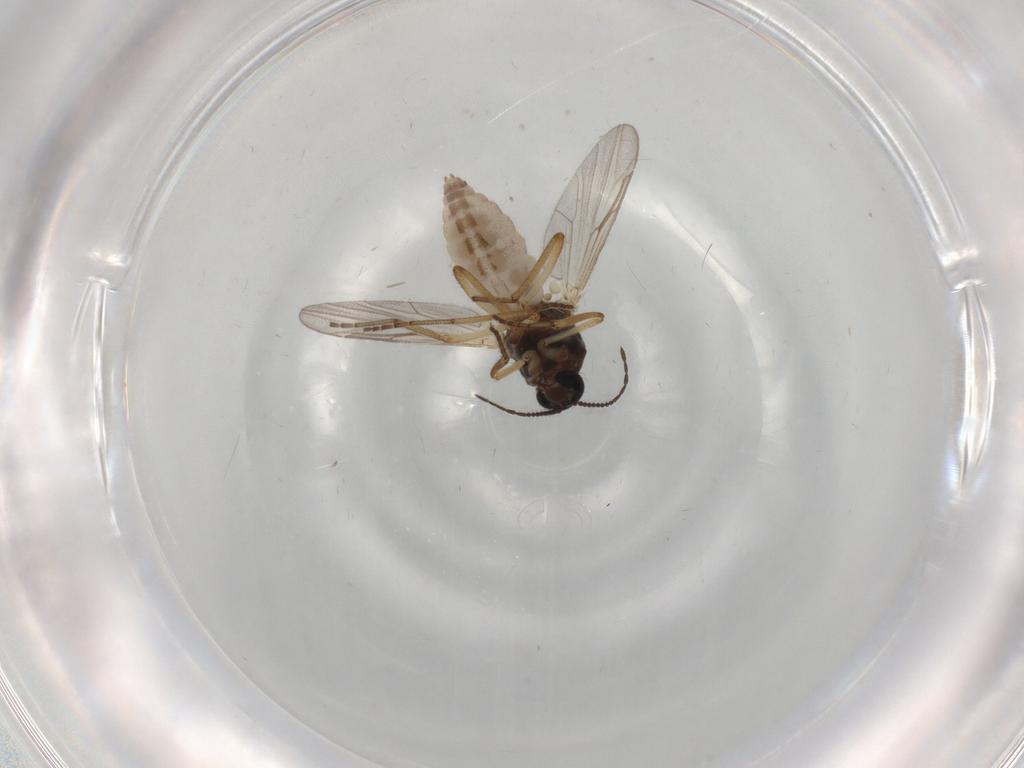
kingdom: Animalia
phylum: Arthropoda
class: Insecta
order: Diptera
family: Ceratopogonidae
